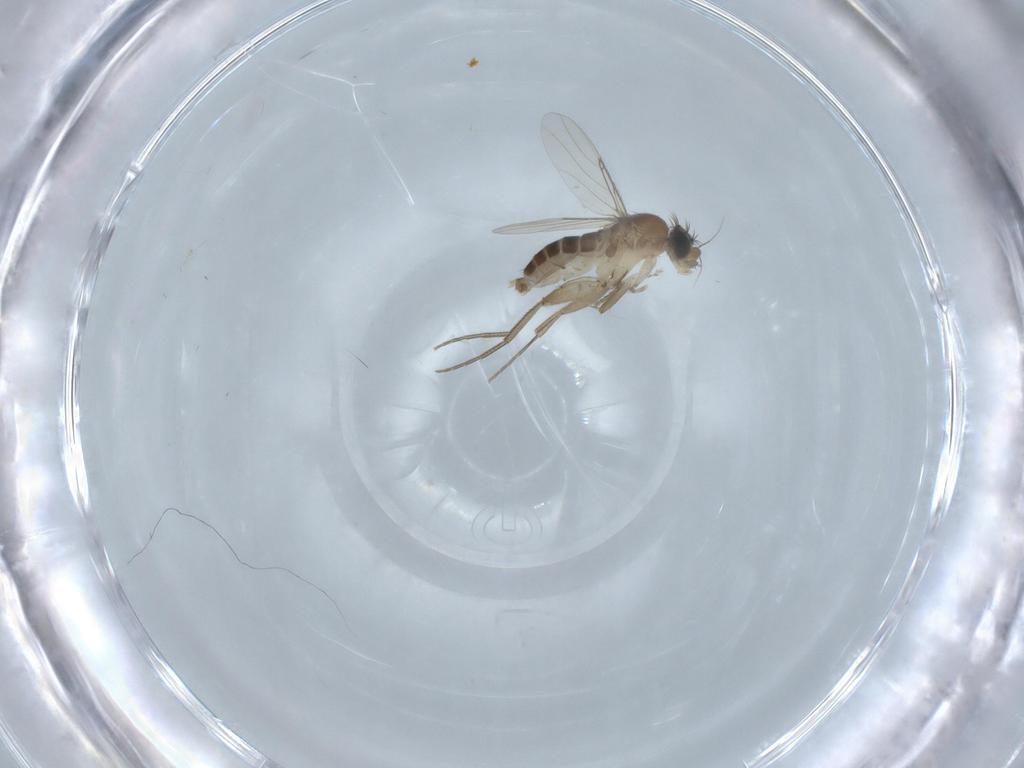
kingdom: Animalia
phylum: Arthropoda
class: Insecta
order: Diptera
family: Phoridae
